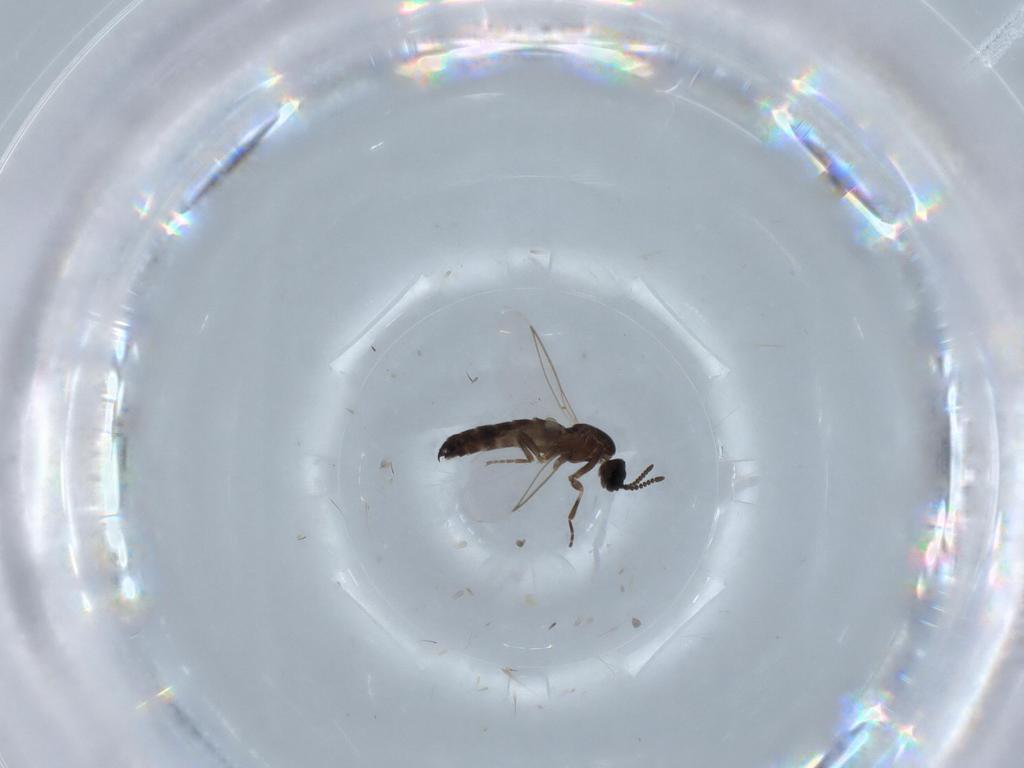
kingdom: Animalia
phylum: Arthropoda
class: Insecta
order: Diptera
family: Scatopsidae
